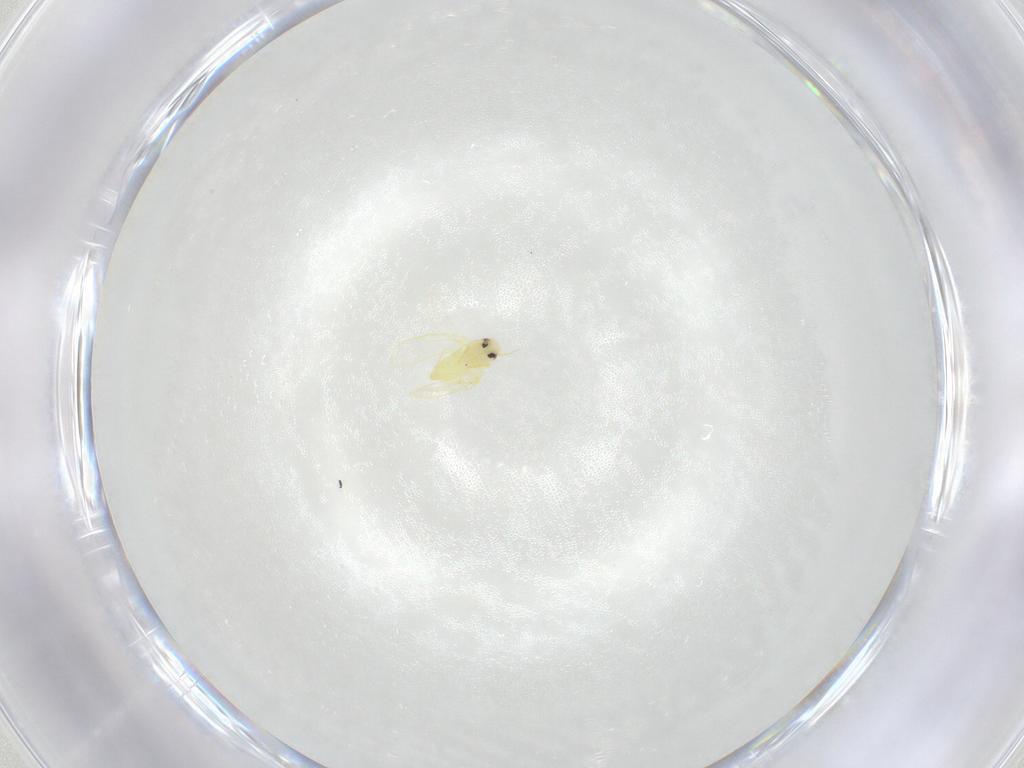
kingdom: Animalia
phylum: Arthropoda
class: Insecta
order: Hemiptera
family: Aleyrodidae
